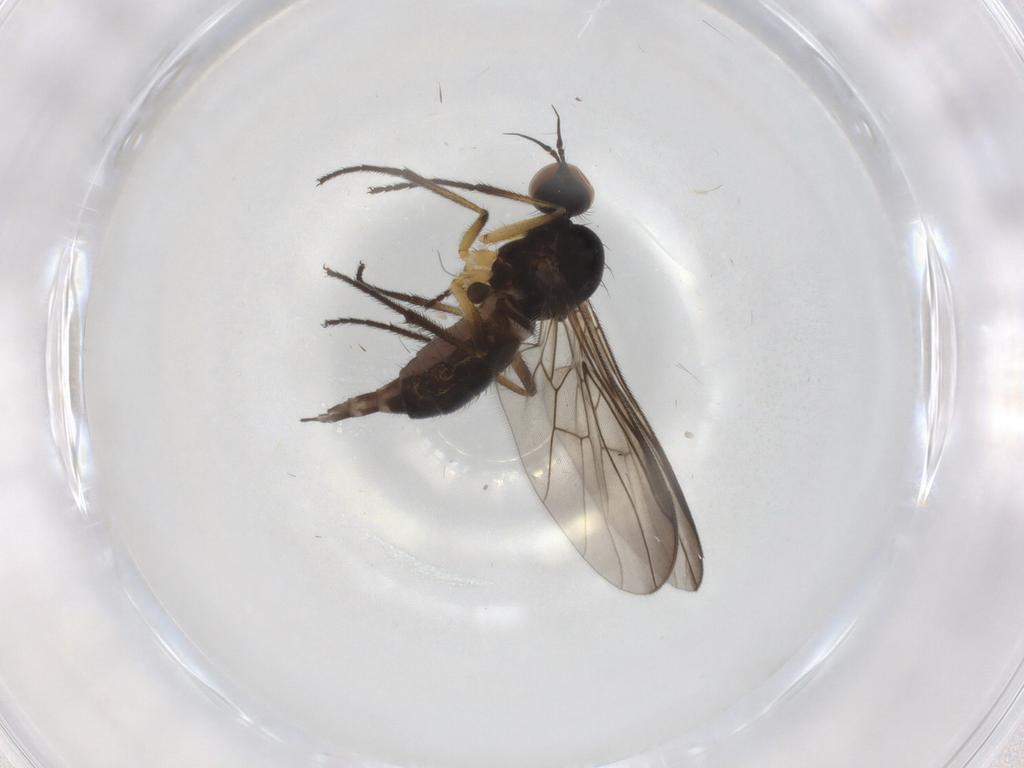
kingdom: Animalia
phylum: Arthropoda
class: Insecta
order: Diptera
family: Empididae
